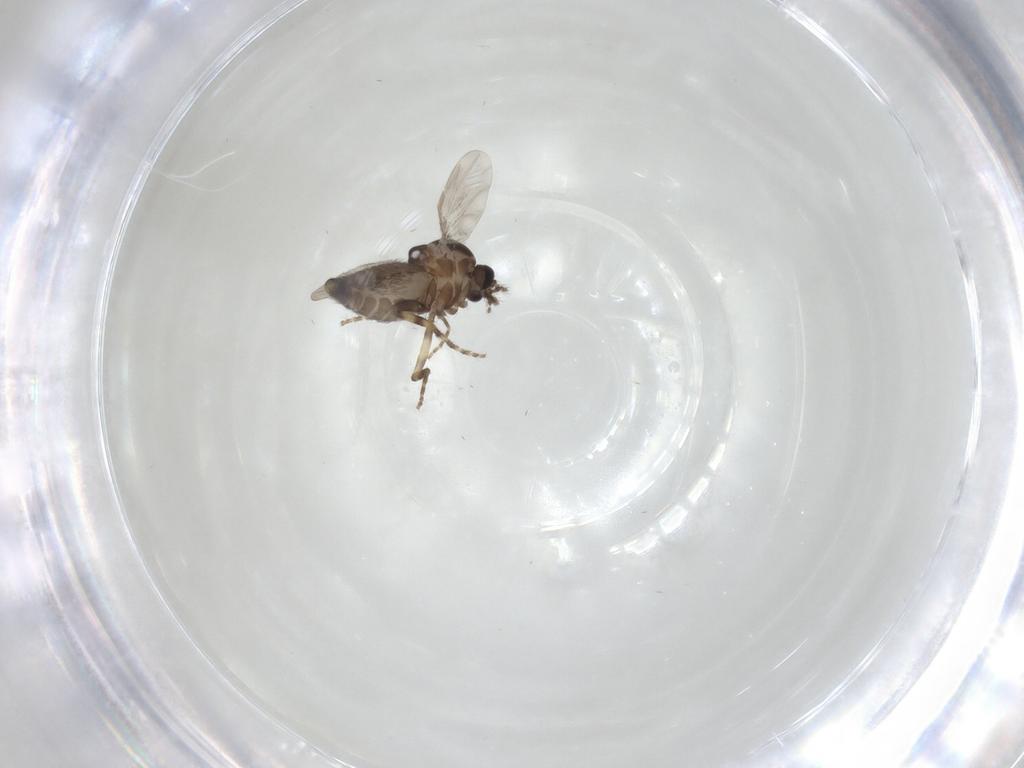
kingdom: Animalia
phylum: Arthropoda
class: Insecta
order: Diptera
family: Ceratopogonidae
